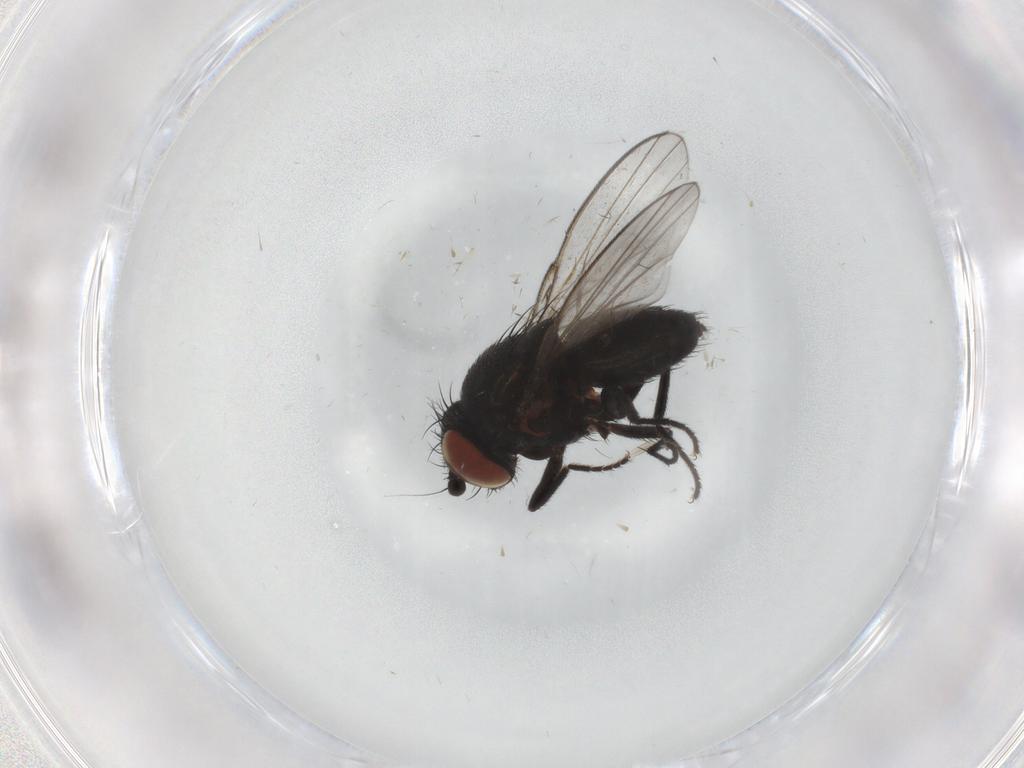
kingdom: Animalia
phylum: Arthropoda
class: Insecta
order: Diptera
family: Milichiidae
